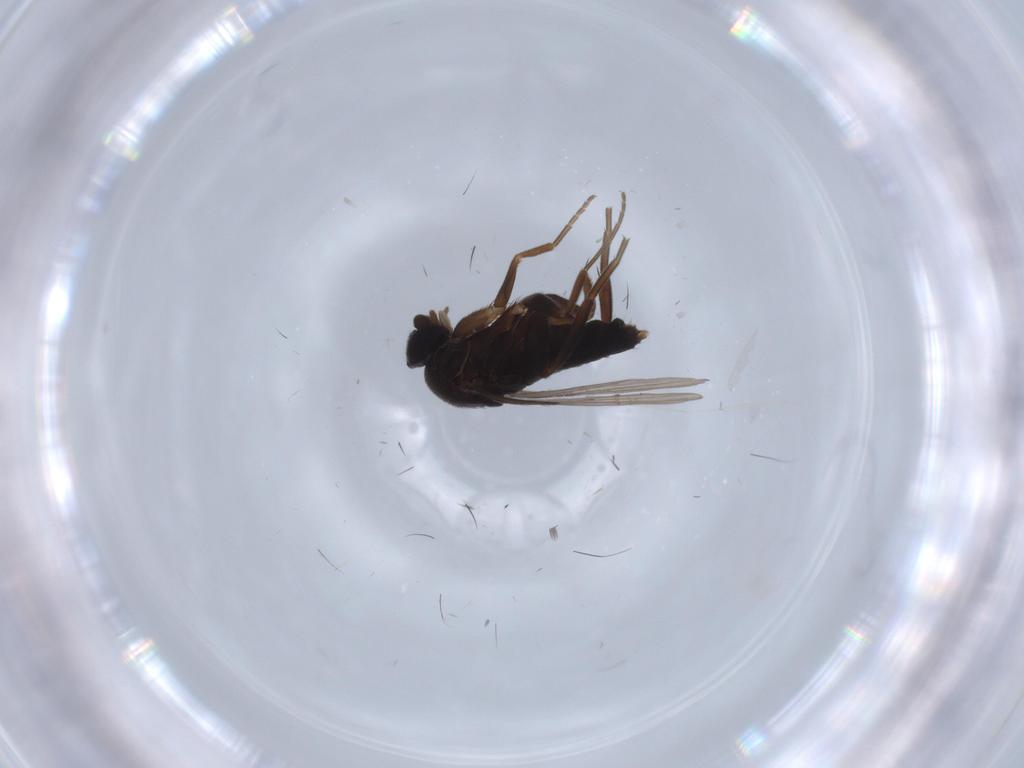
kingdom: Animalia
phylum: Arthropoda
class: Insecta
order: Diptera
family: Phoridae
